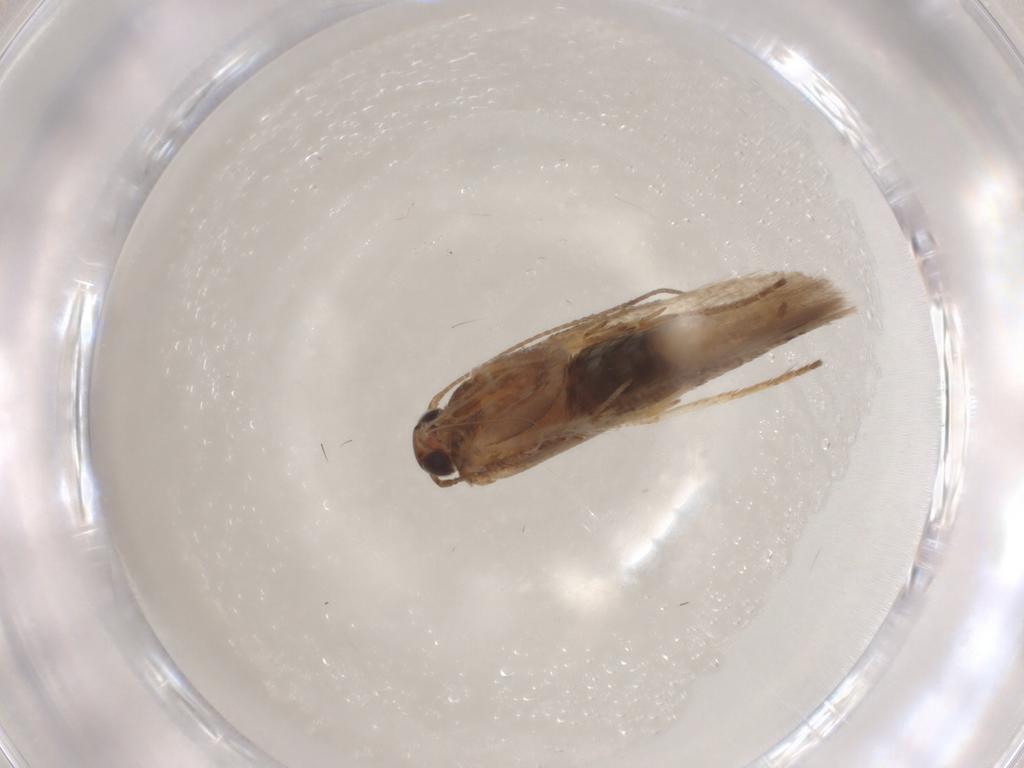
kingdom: Animalia
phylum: Arthropoda
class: Insecta
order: Lepidoptera
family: Gelechiidae
